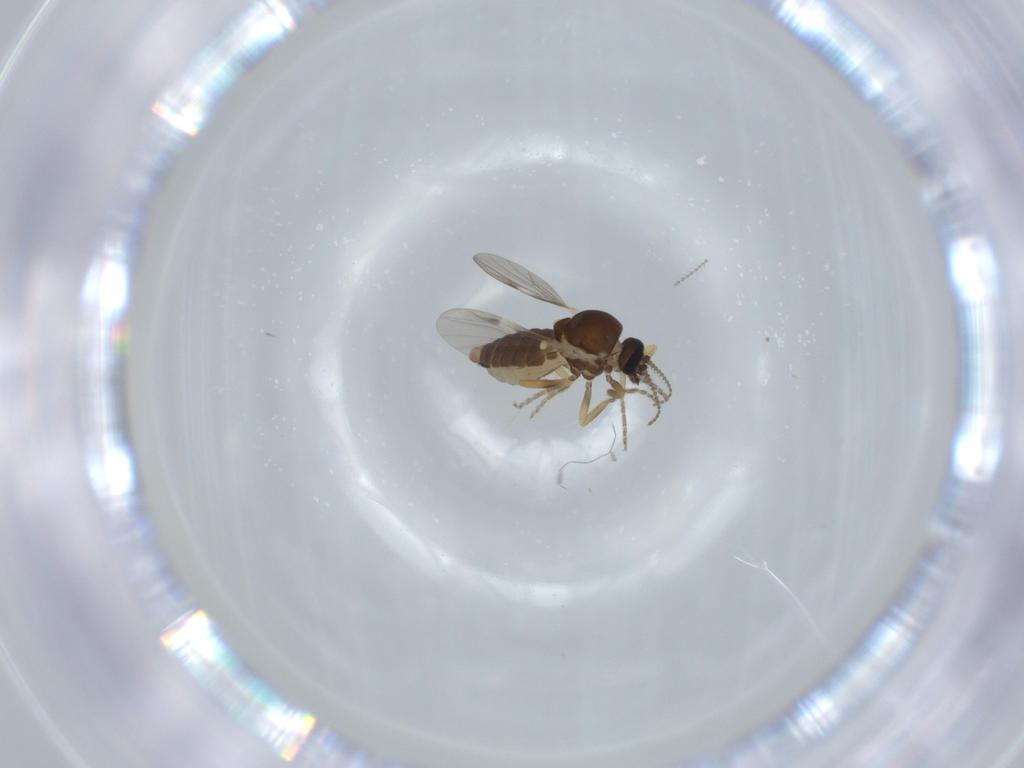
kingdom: Animalia
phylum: Arthropoda
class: Insecta
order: Diptera
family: Ceratopogonidae
